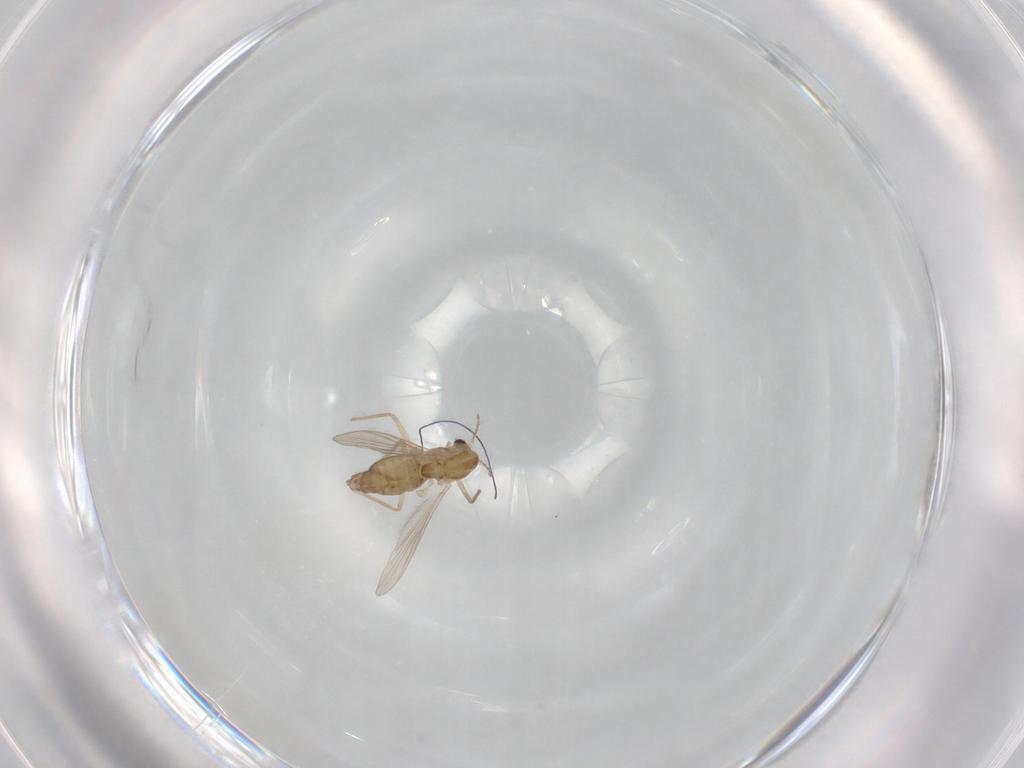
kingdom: Animalia
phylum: Arthropoda
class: Insecta
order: Diptera
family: Chironomidae
